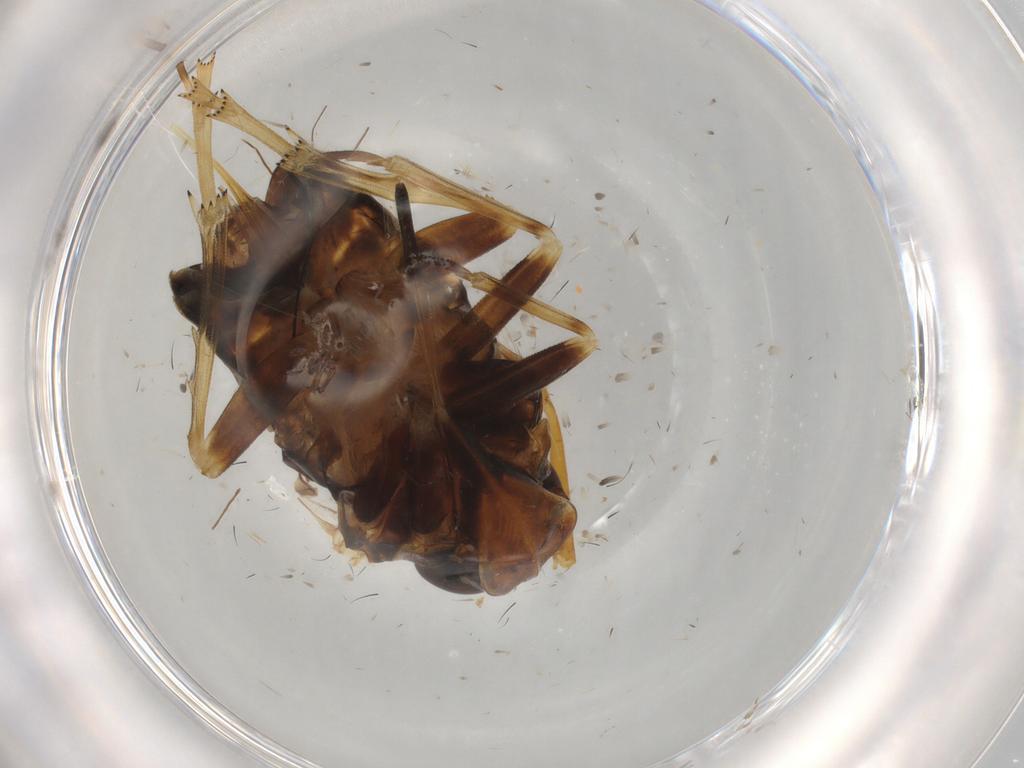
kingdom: Animalia
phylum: Arthropoda
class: Insecta
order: Hemiptera
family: Cixiidae
